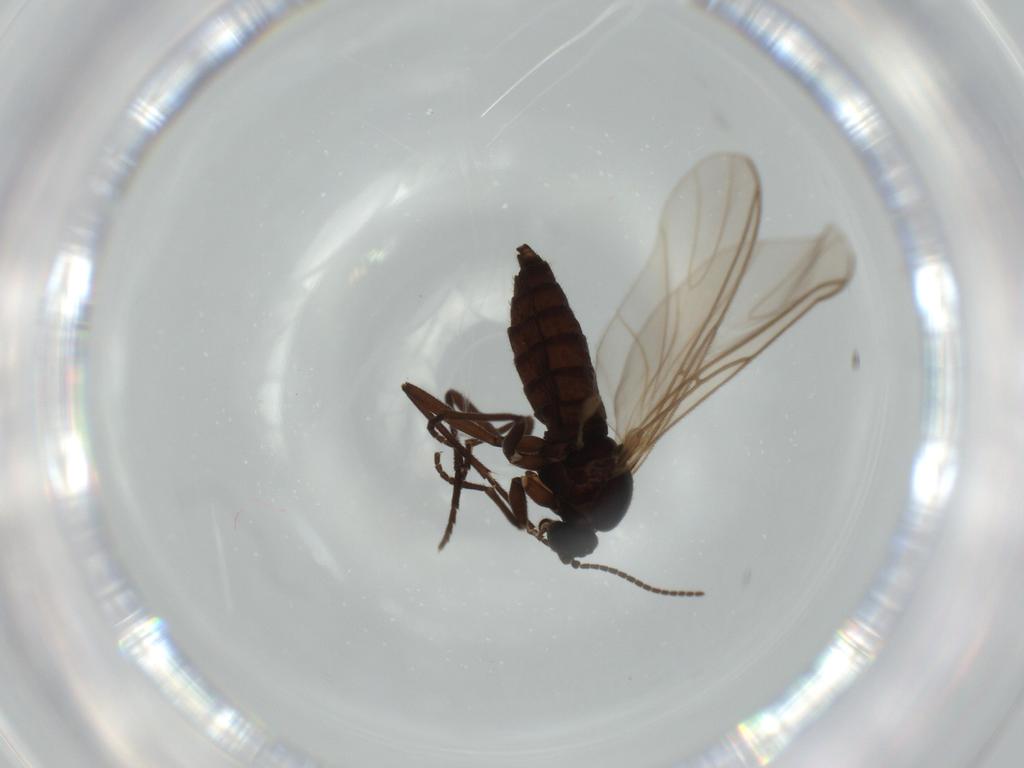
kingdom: Animalia
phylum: Arthropoda
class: Insecta
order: Diptera
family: Sciaridae
